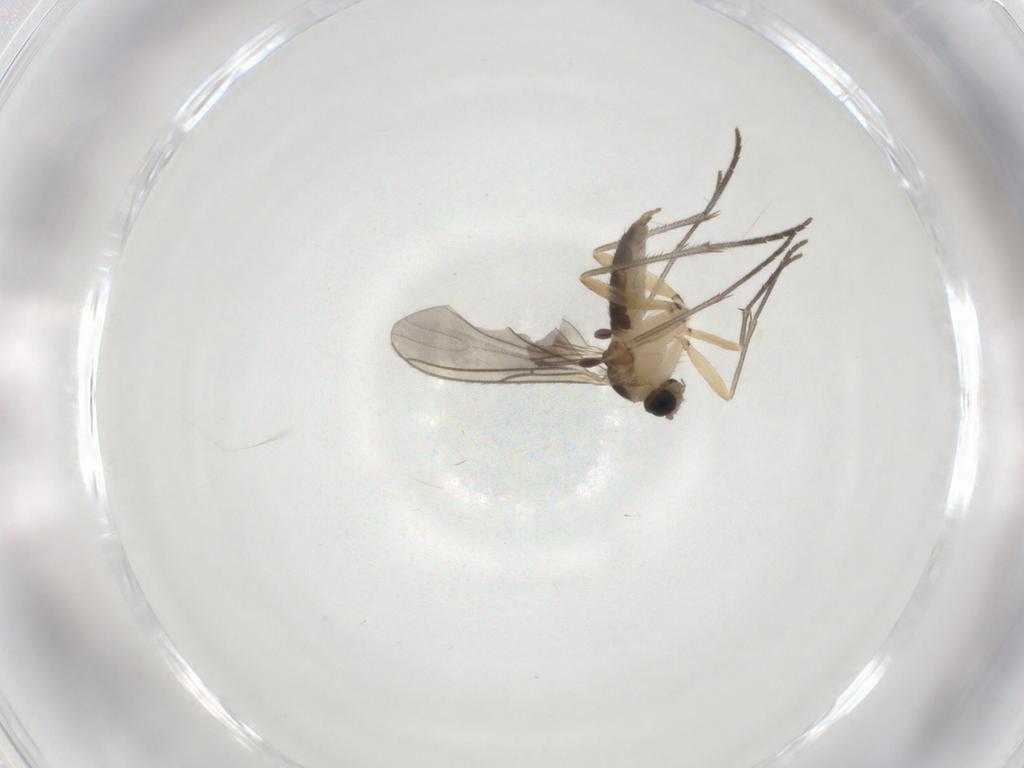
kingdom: Animalia
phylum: Arthropoda
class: Insecta
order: Diptera
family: Sciaridae
